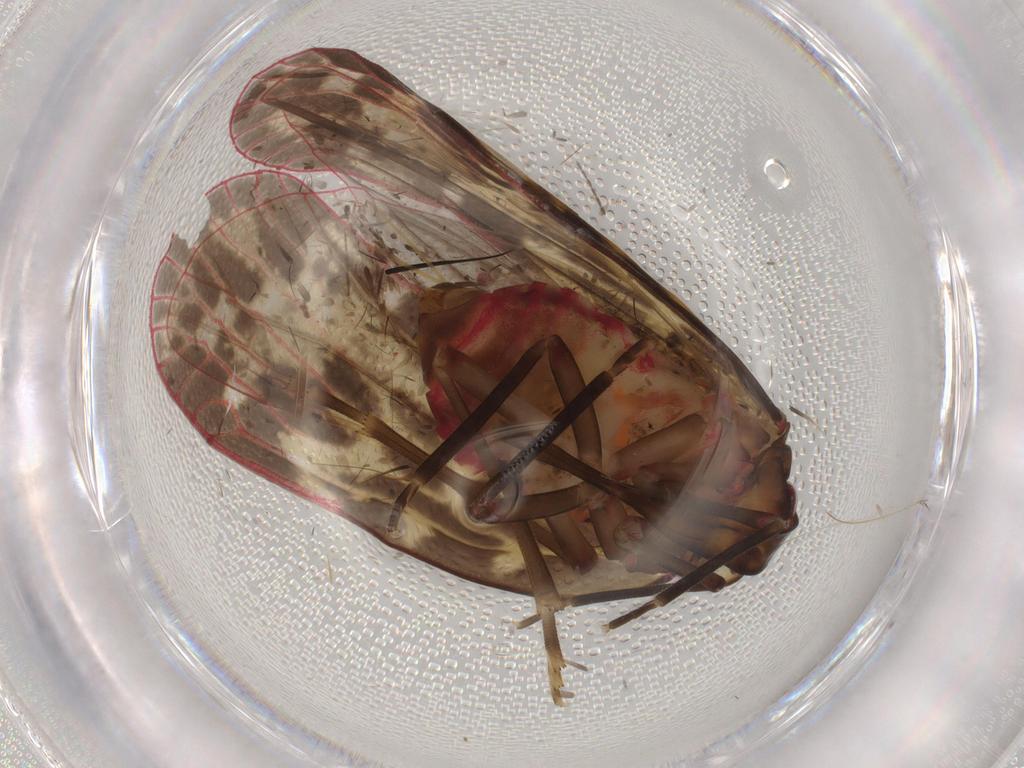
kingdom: Animalia
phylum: Arthropoda
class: Insecta
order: Hemiptera
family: Achilidae
